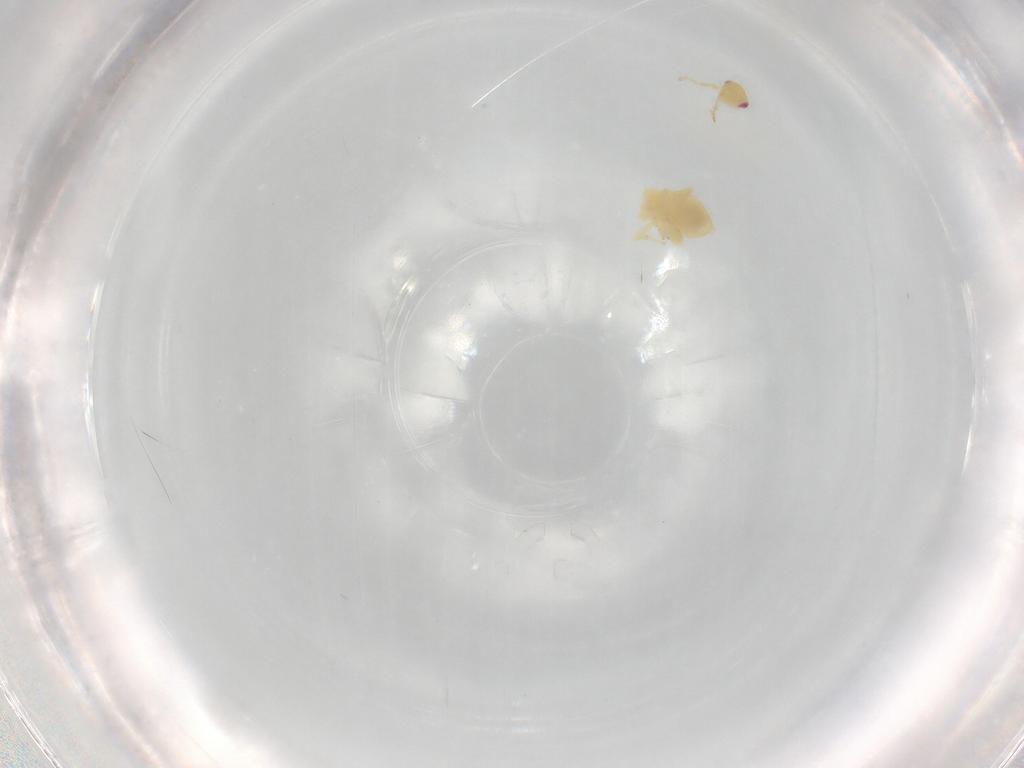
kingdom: Animalia
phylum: Arthropoda
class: Insecta
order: Hemiptera
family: Miridae
